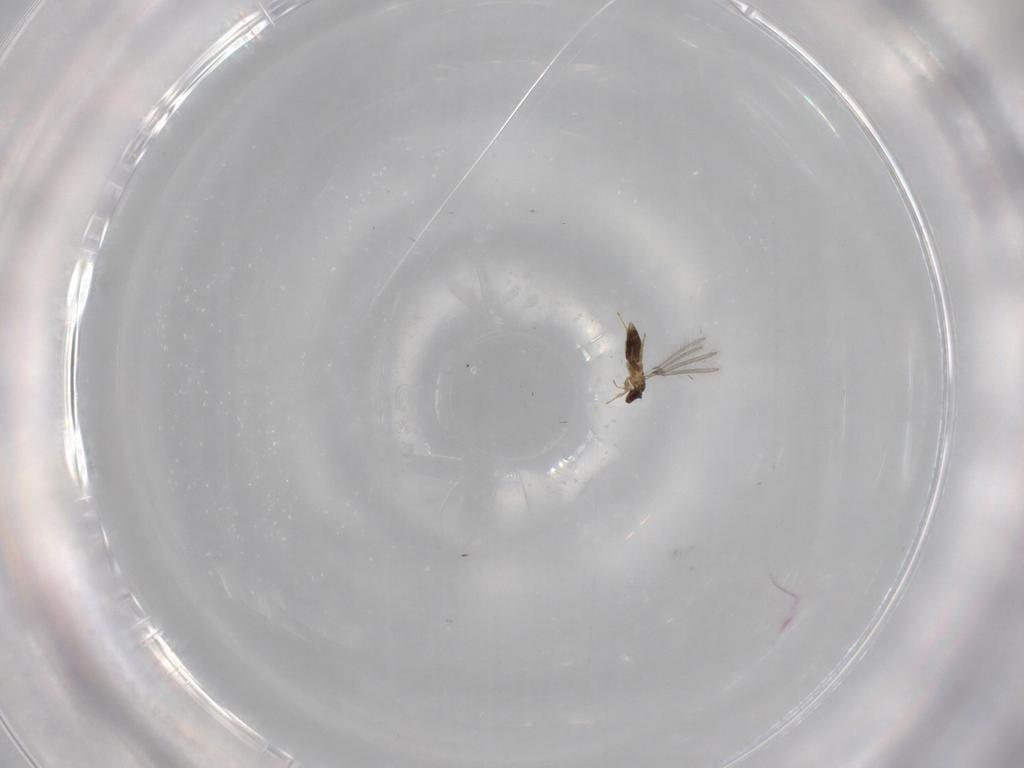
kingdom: Animalia
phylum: Arthropoda
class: Insecta
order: Hymenoptera
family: Mymaridae
